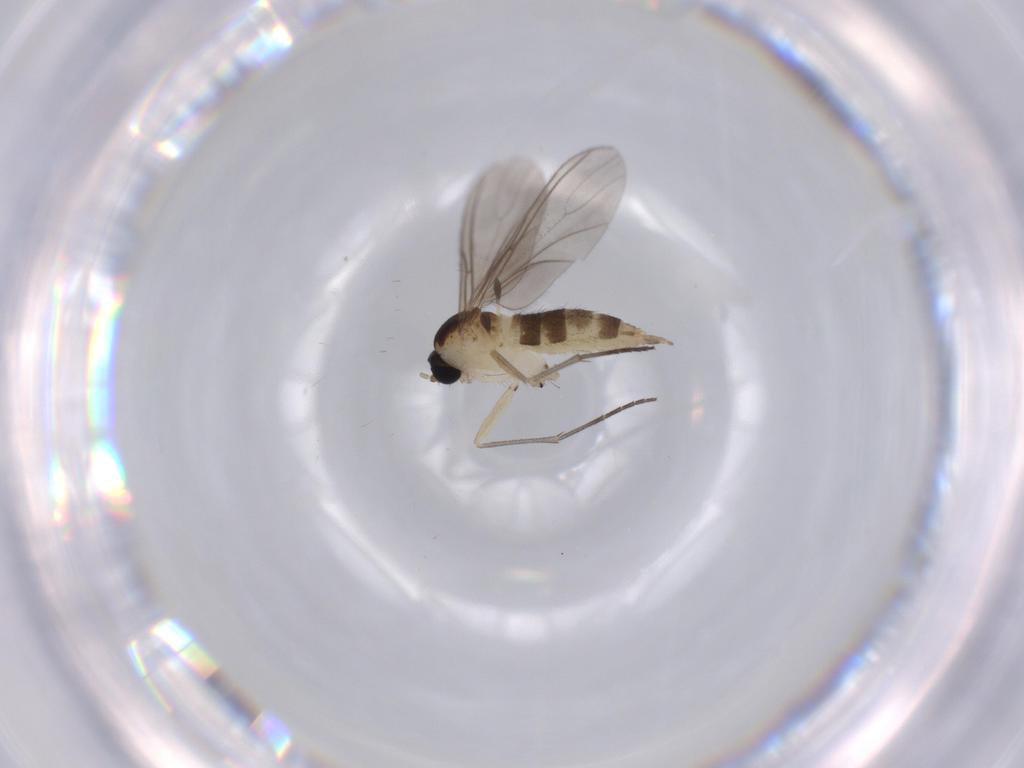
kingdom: Animalia
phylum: Arthropoda
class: Insecta
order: Diptera
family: Sciaridae
